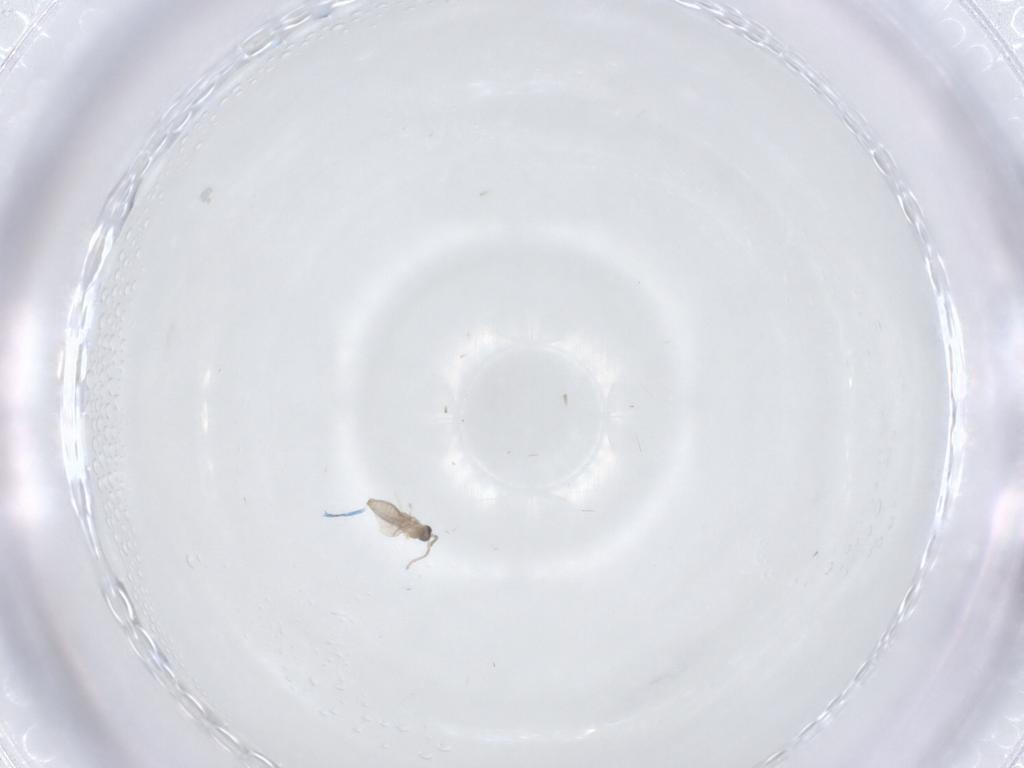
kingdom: Animalia
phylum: Arthropoda
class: Insecta
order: Diptera
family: Cecidomyiidae
